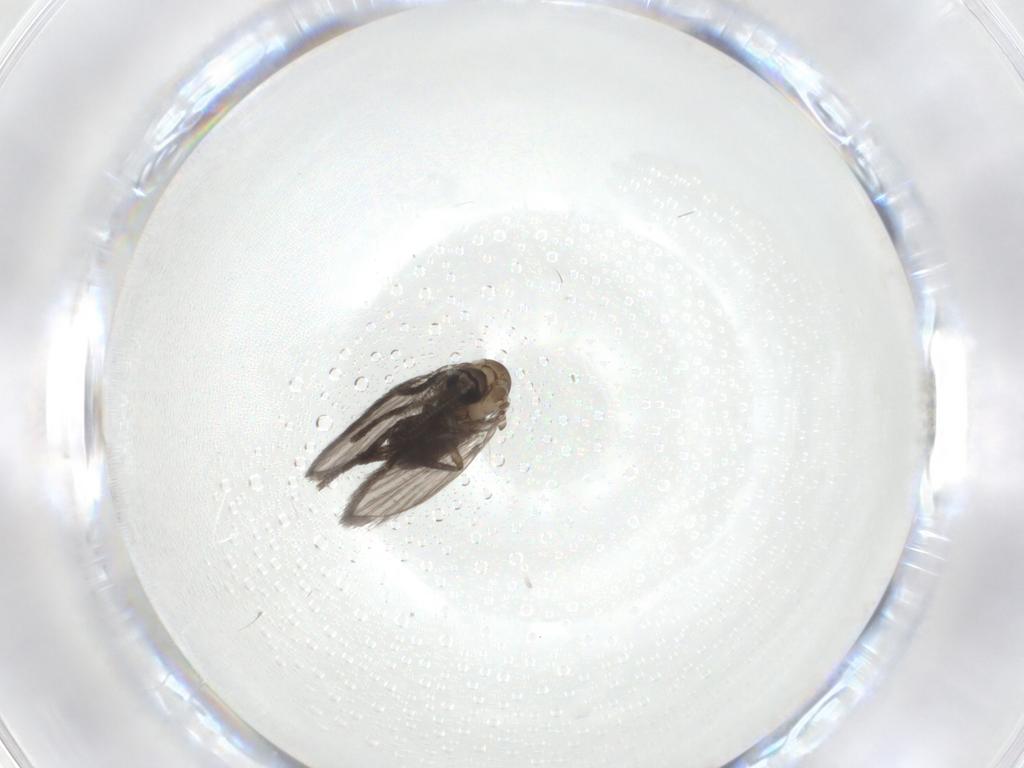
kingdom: Animalia
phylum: Arthropoda
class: Insecta
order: Diptera
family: Psychodidae
